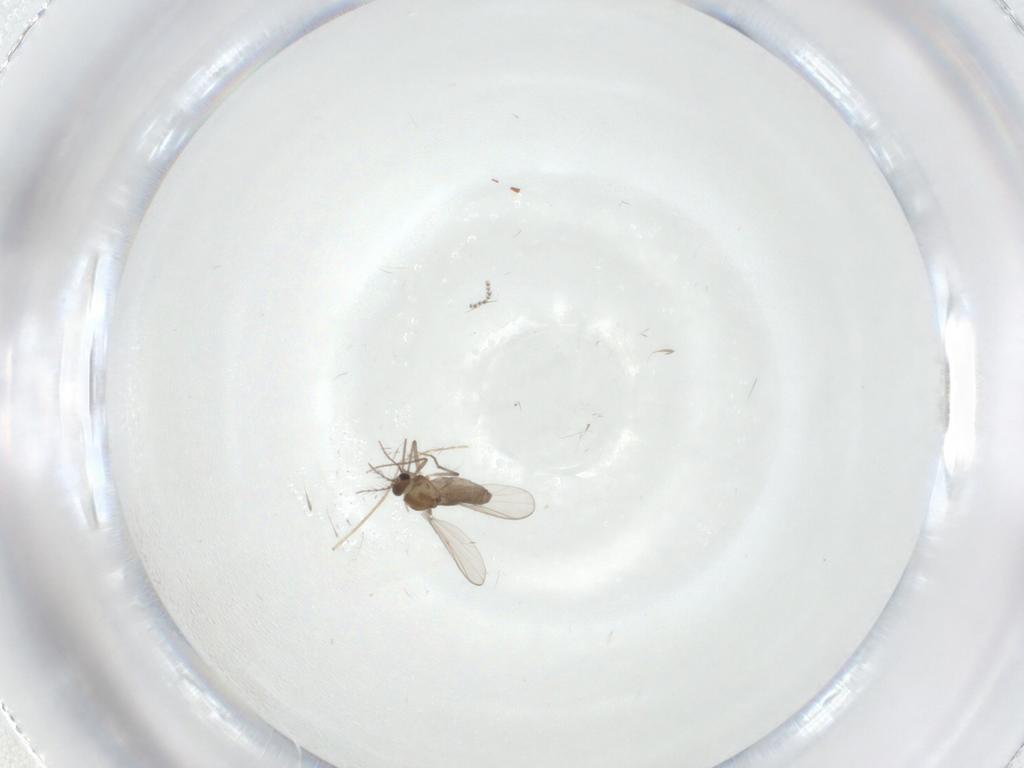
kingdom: Animalia
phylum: Arthropoda
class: Insecta
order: Diptera
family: Chironomidae
